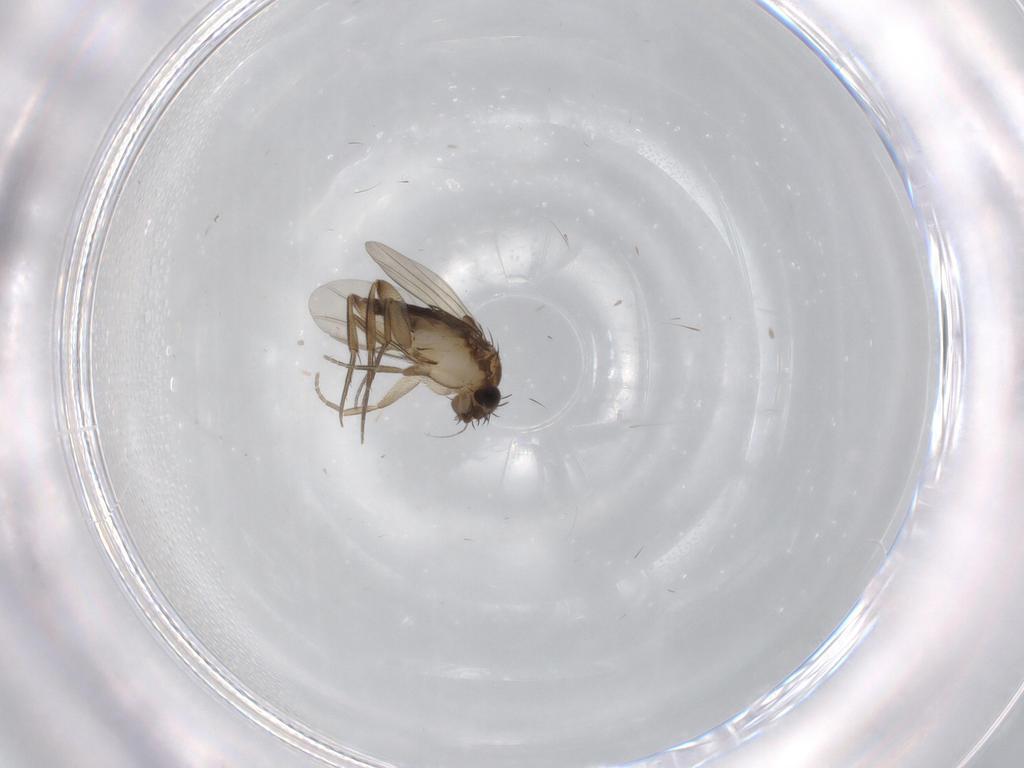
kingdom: Animalia
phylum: Arthropoda
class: Insecta
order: Diptera
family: Phoridae
